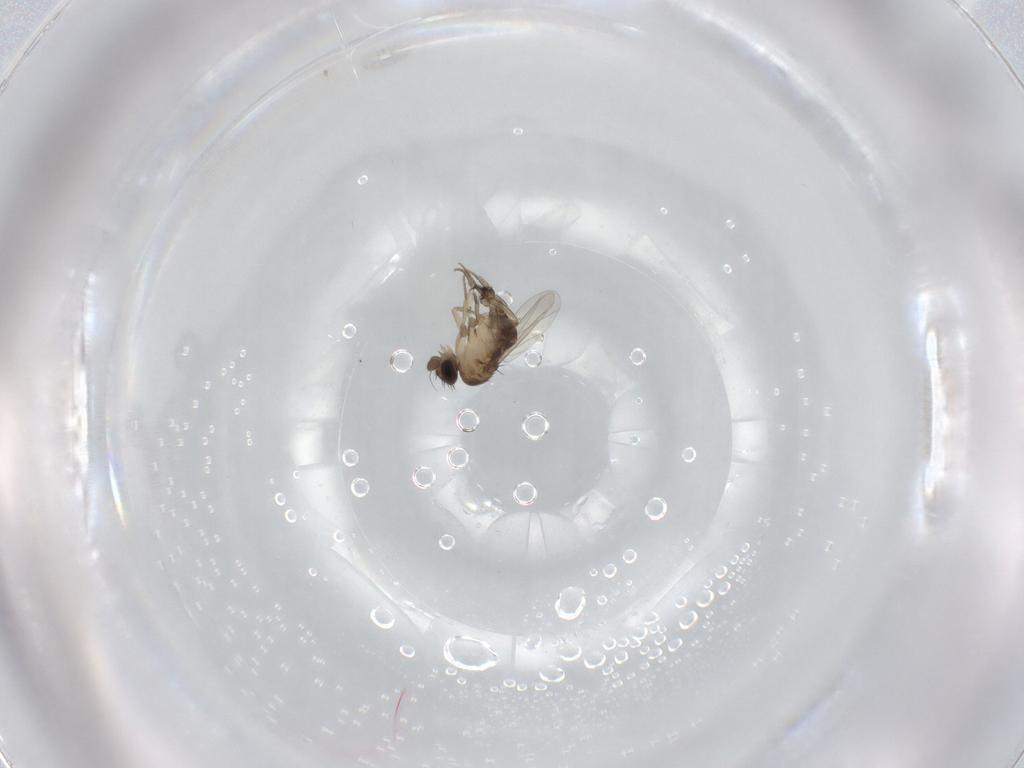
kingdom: Animalia
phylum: Arthropoda
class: Insecta
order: Diptera
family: Phoridae
